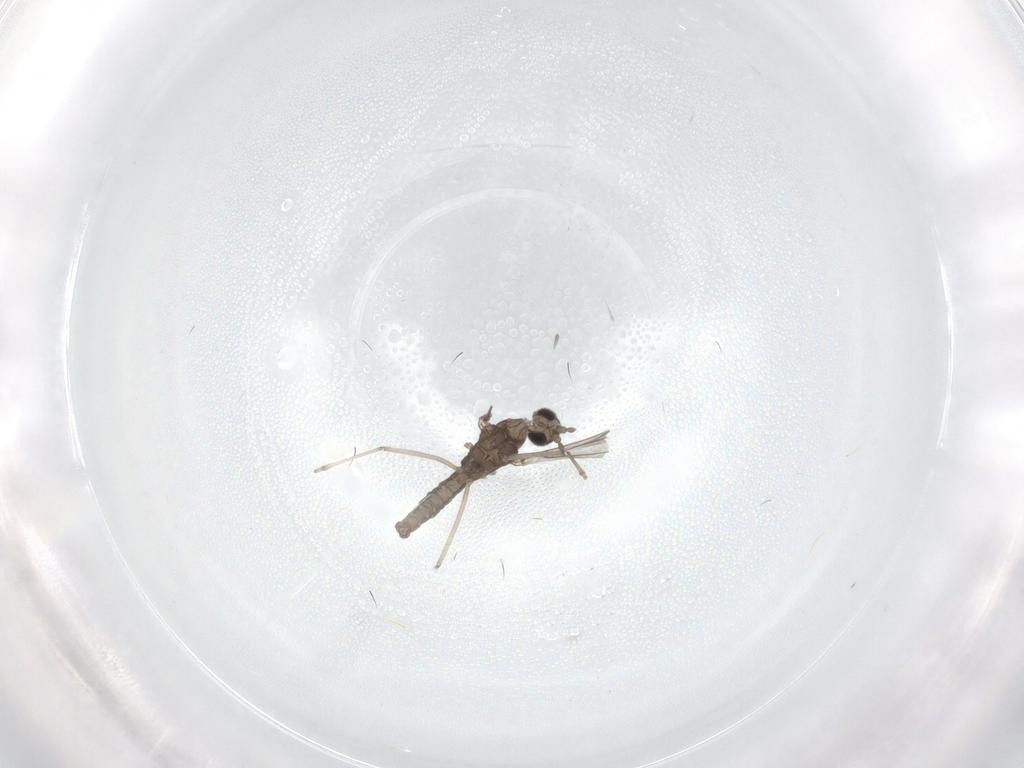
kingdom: Animalia
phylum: Arthropoda
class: Insecta
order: Diptera
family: Cecidomyiidae
